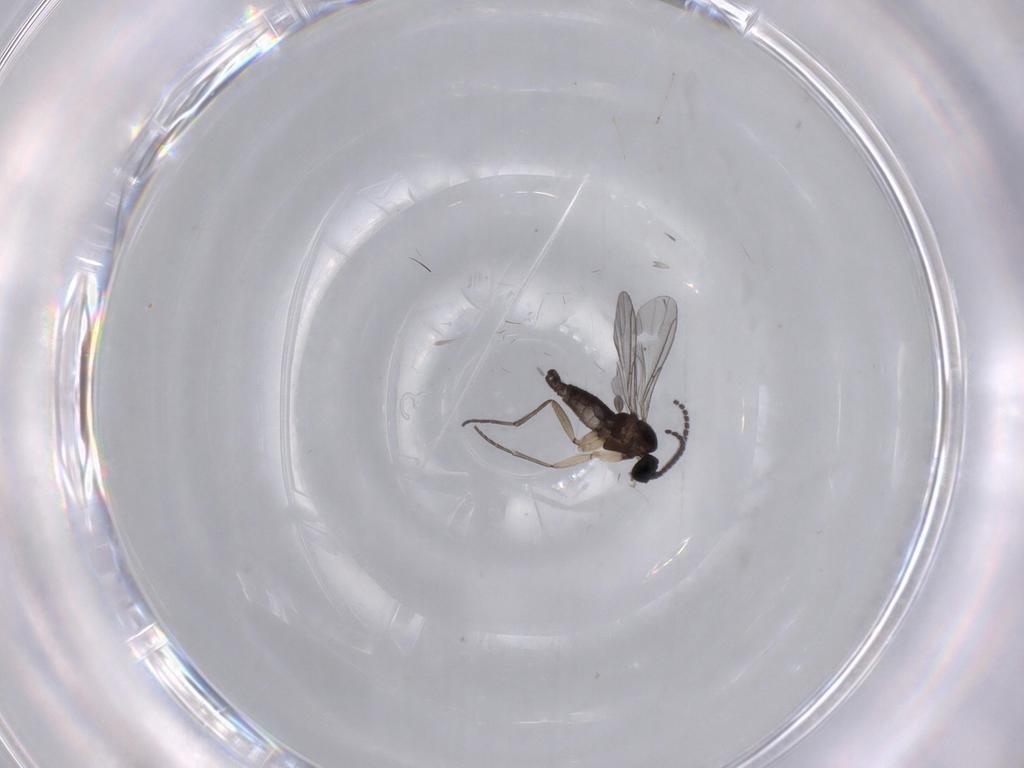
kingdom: Animalia
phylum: Arthropoda
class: Insecta
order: Diptera
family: Sciaridae
